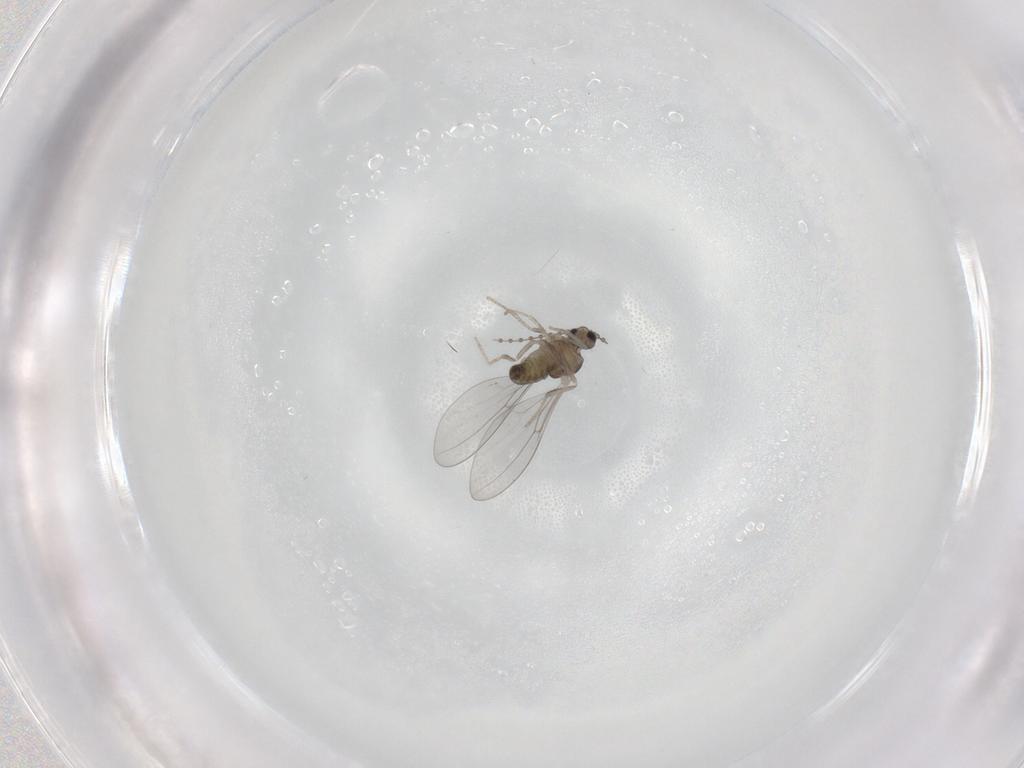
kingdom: Animalia
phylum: Arthropoda
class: Insecta
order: Diptera
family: Cecidomyiidae
